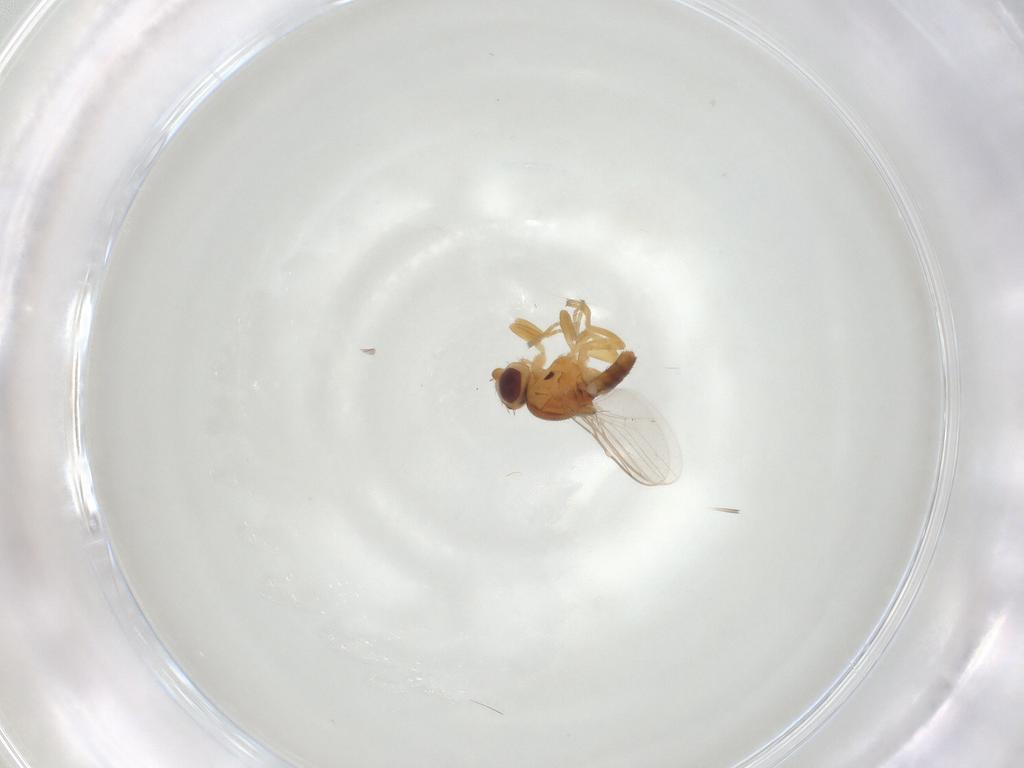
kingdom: Animalia
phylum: Arthropoda
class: Insecta
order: Diptera
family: Chloropidae
